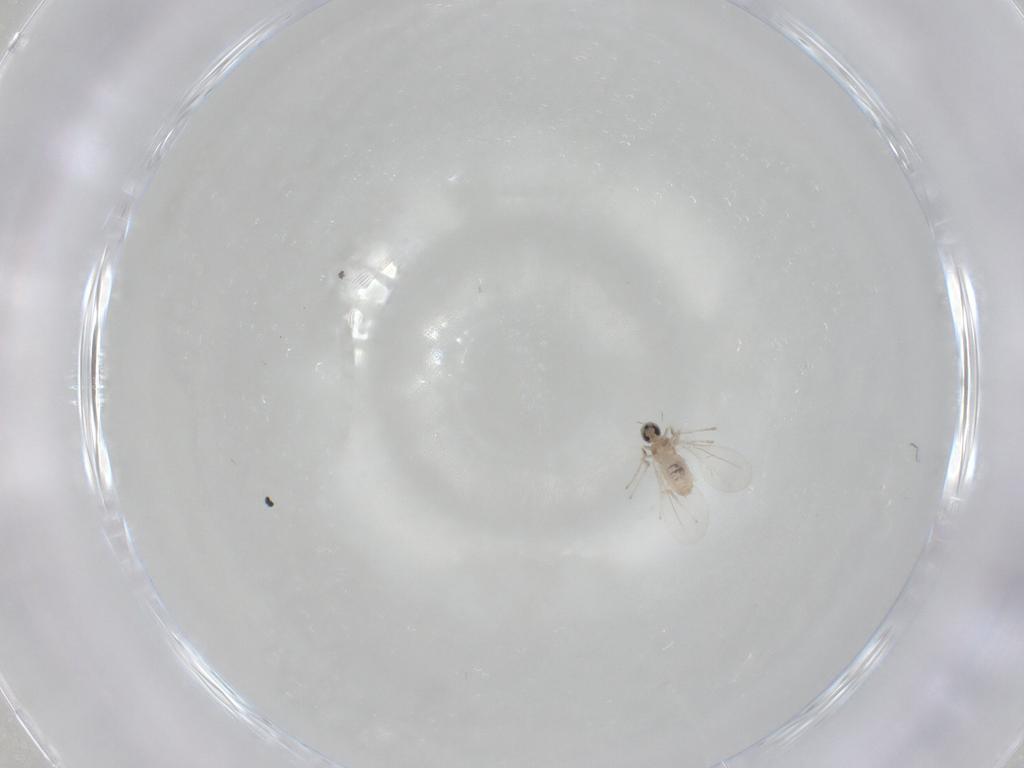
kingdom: Animalia
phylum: Arthropoda
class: Insecta
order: Diptera
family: Cecidomyiidae
